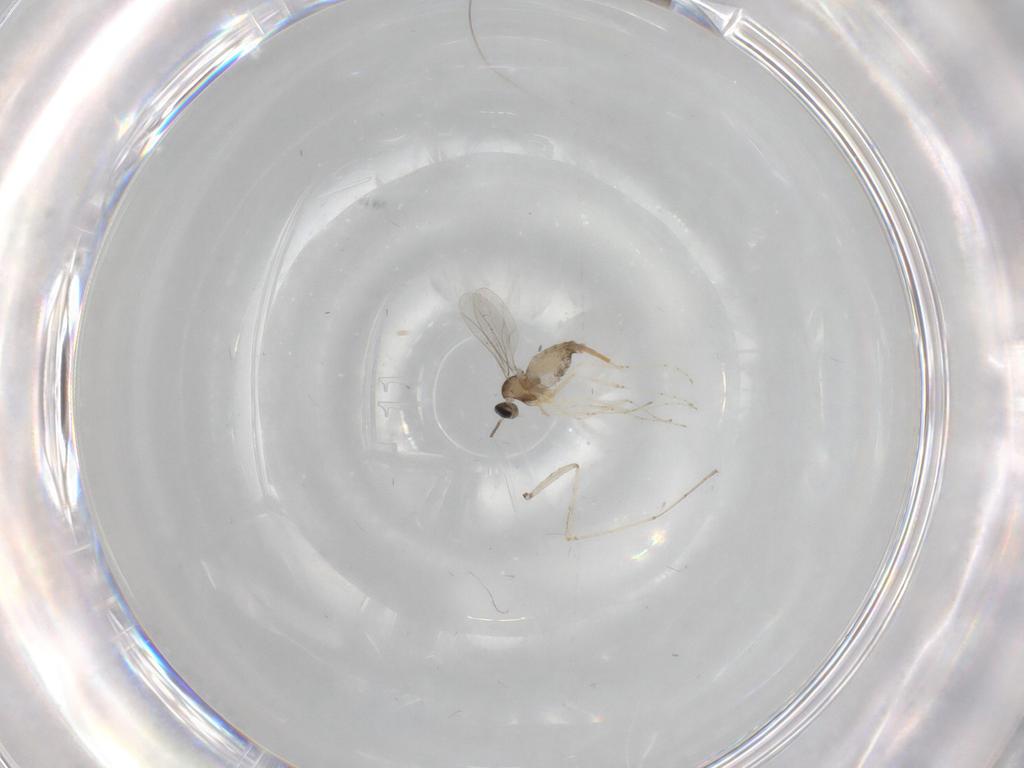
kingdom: Animalia
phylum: Arthropoda
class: Insecta
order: Diptera
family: Cecidomyiidae
